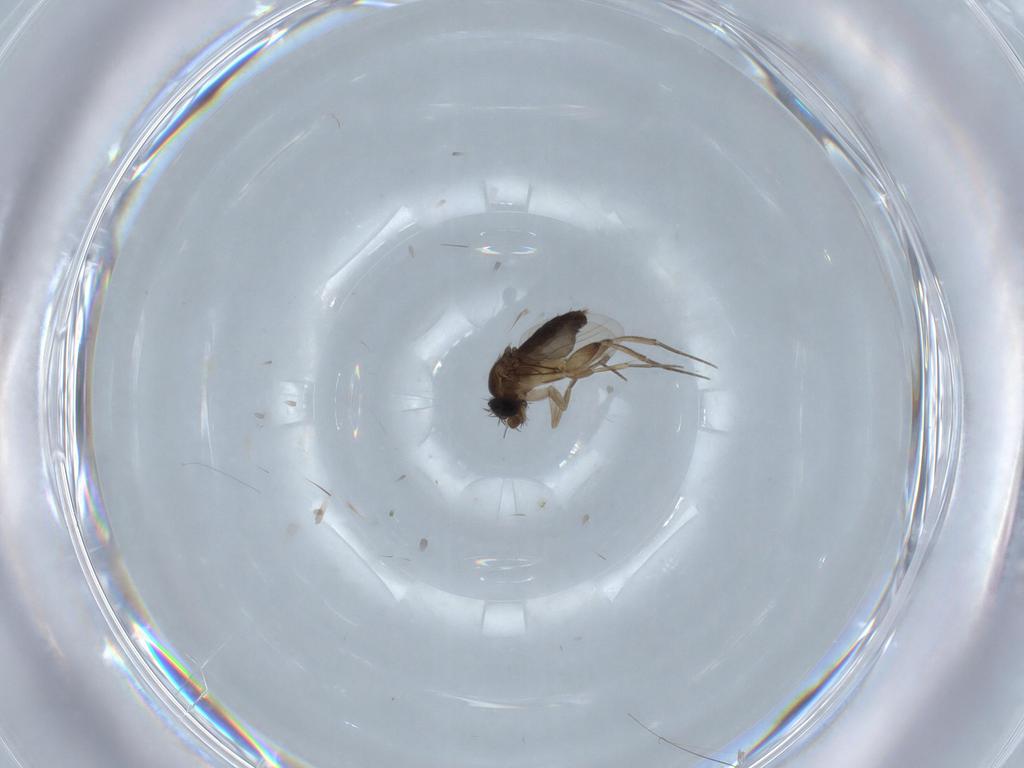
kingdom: Animalia
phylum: Arthropoda
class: Insecta
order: Diptera
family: Phoridae
